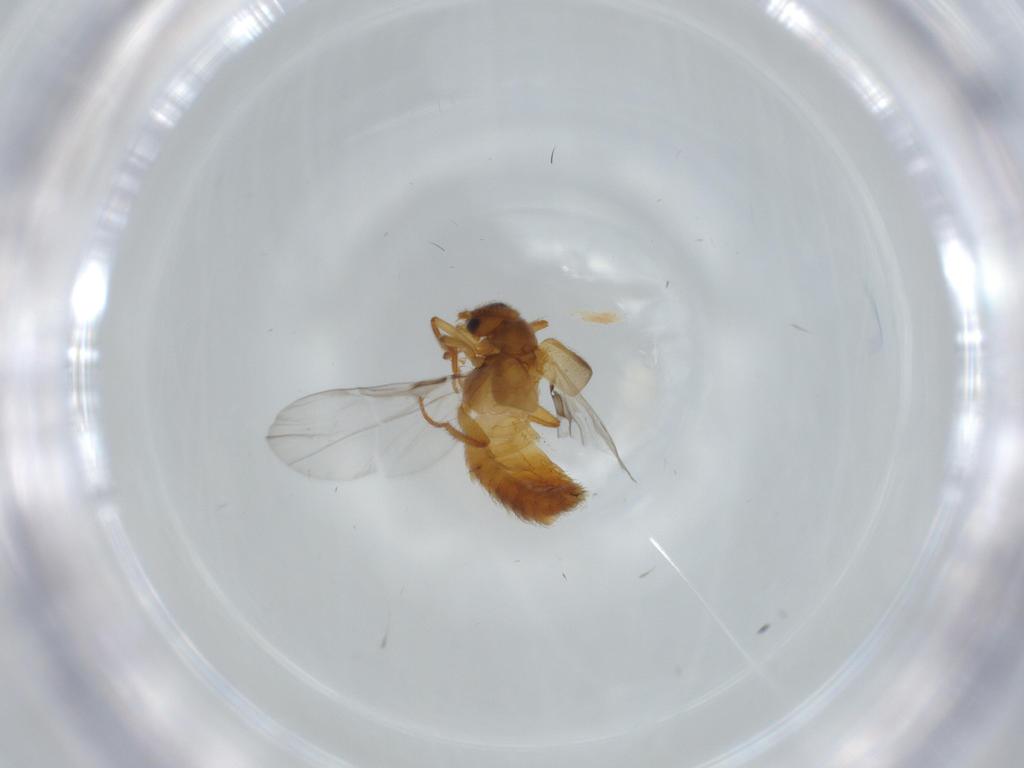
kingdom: Animalia
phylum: Arthropoda
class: Insecta
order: Coleoptera
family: Staphylinidae
